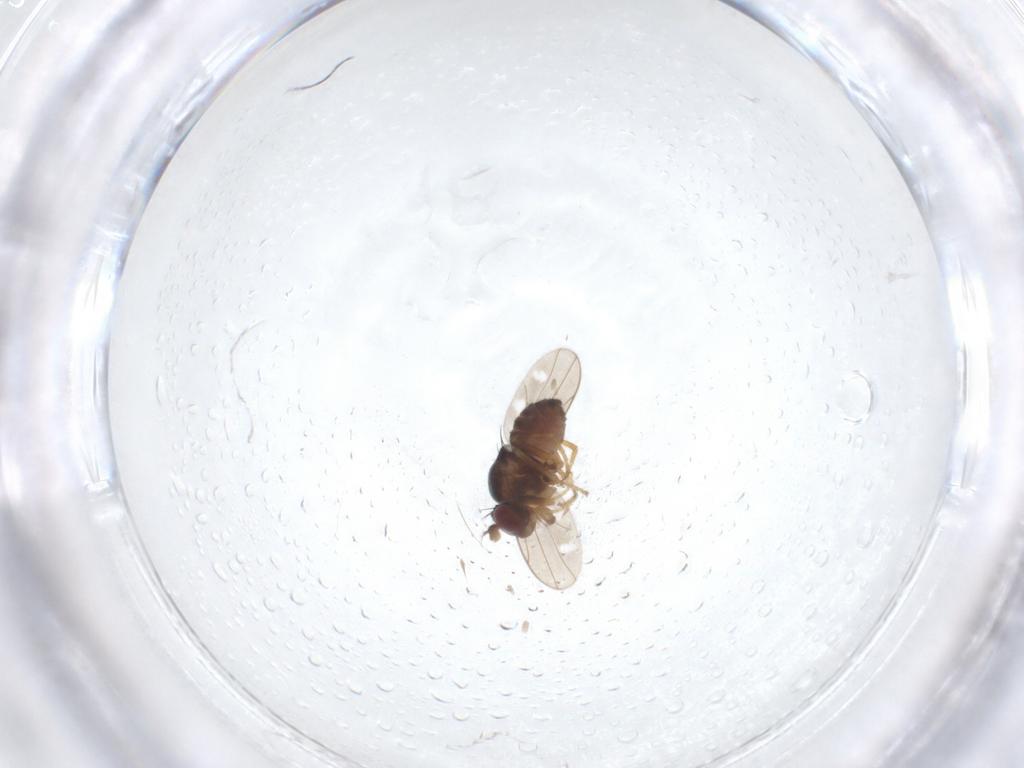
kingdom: Animalia
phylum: Arthropoda
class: Insecta
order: Diptera
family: Ephydridae
